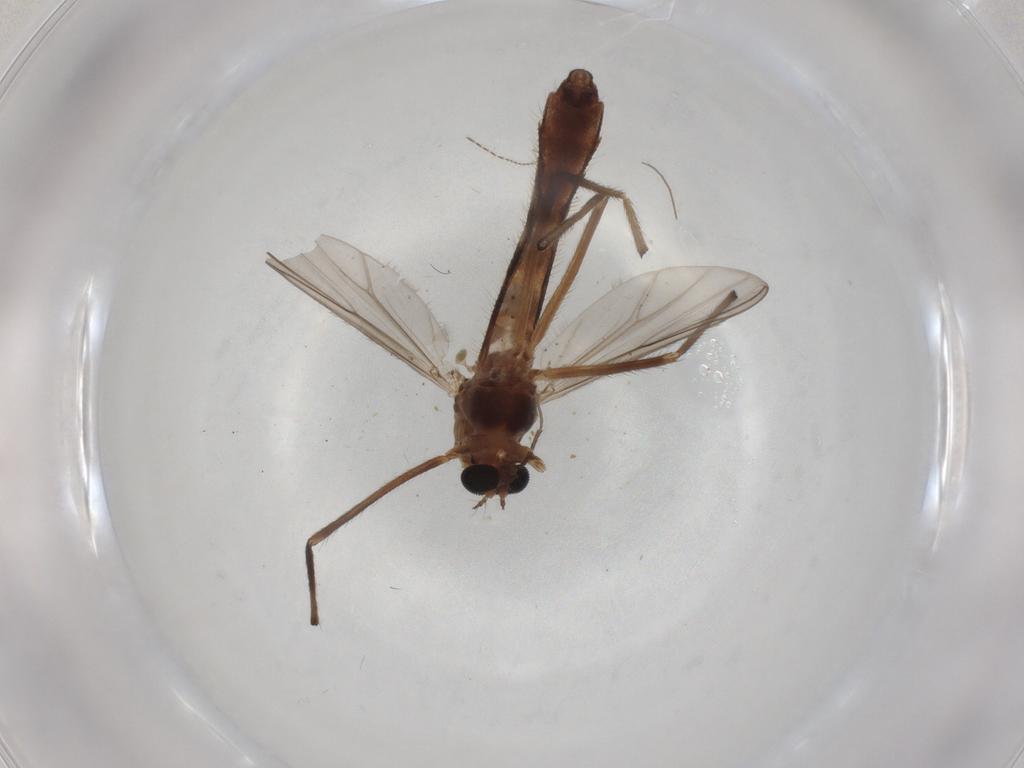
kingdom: Animalia
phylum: Arthropoda
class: Insecta
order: Diptera
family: Chironomidae
